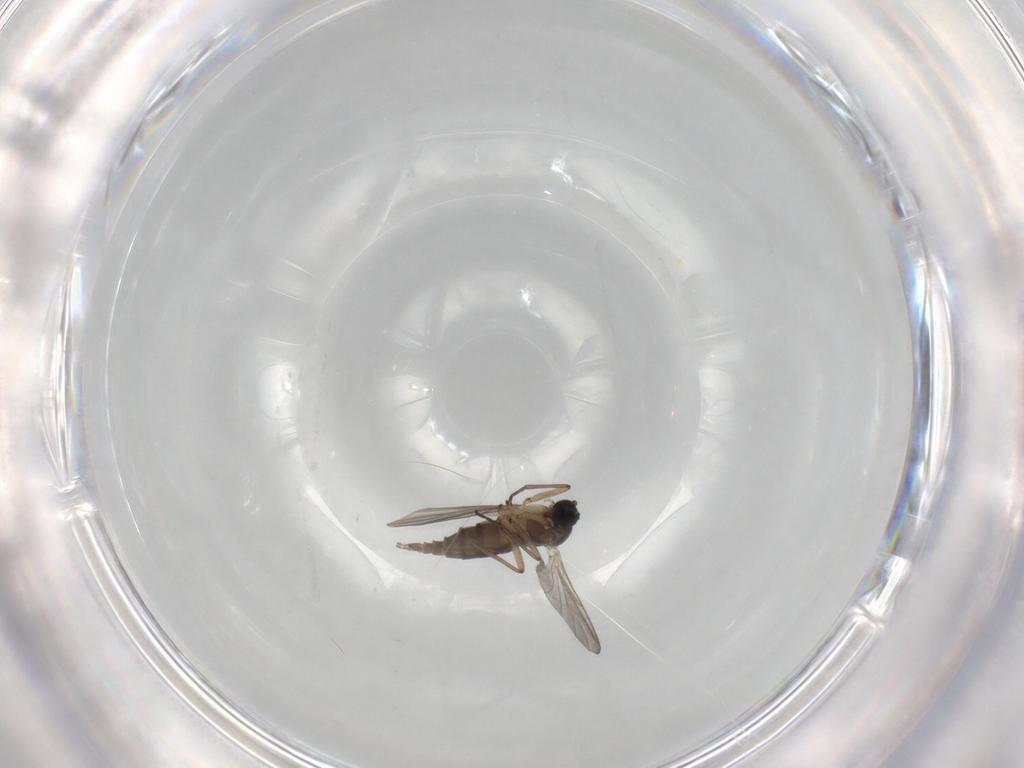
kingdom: Animalia
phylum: Arthropoda
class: Insecta
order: Diptera
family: Sciaridae
